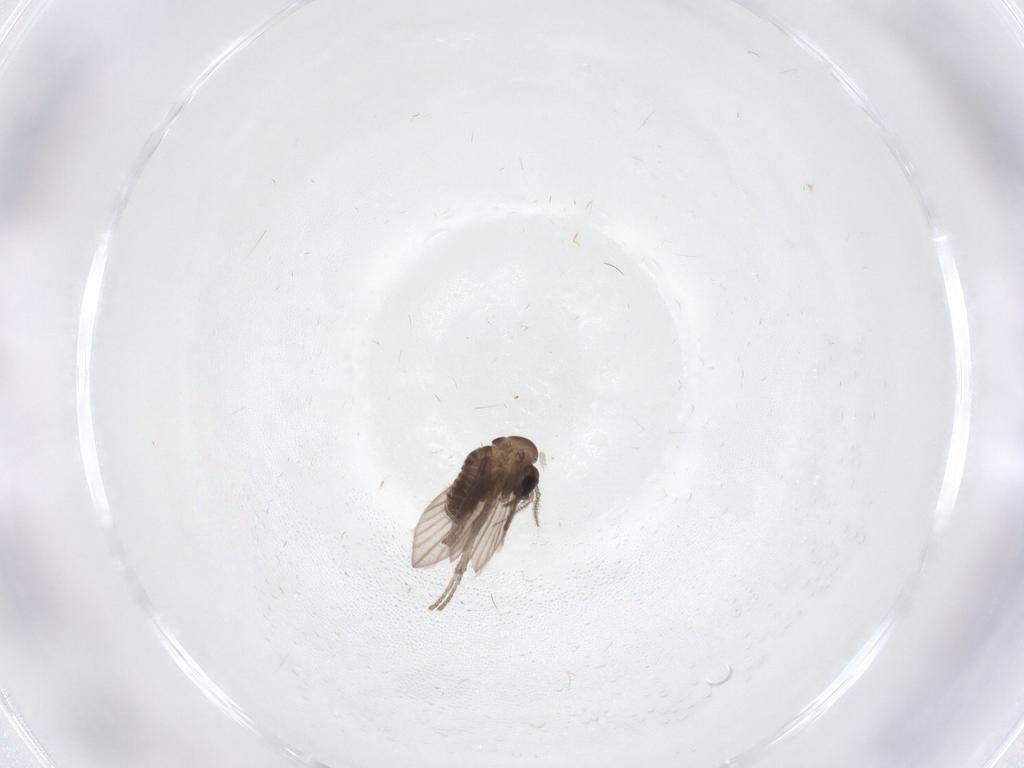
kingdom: Animalia
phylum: Arthropoda
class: Insecta
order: Diptera
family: Psychodidae
